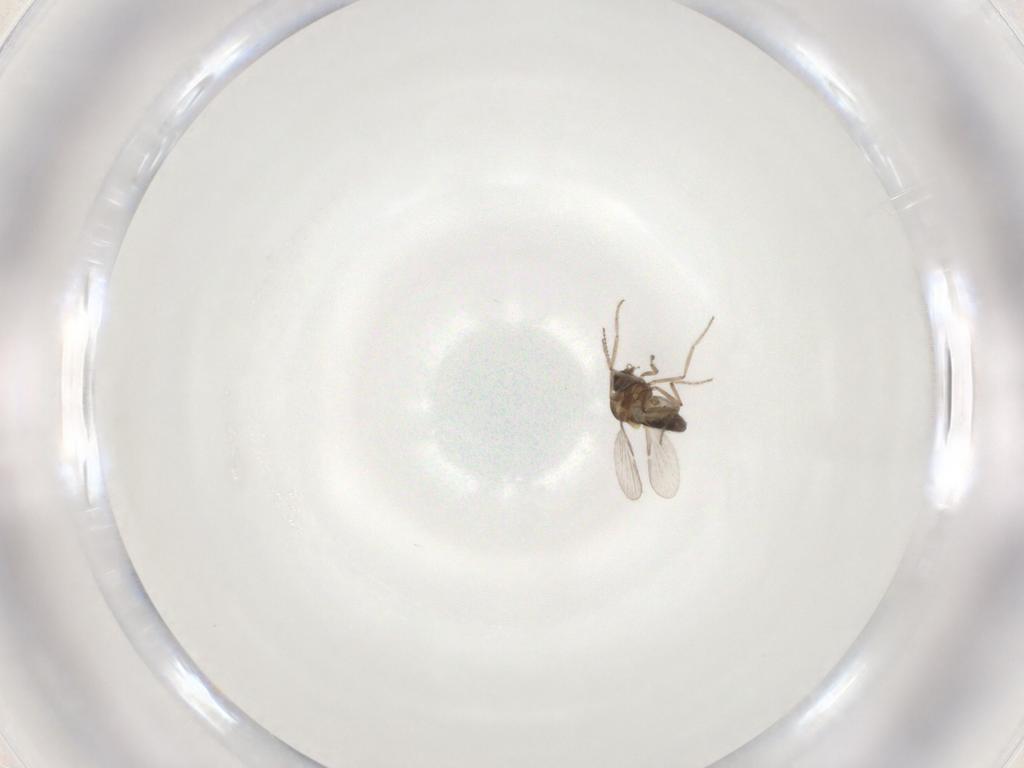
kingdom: Animalia
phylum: Arthropoda
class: Insecta
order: Diptera
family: Ceratopogonidae
